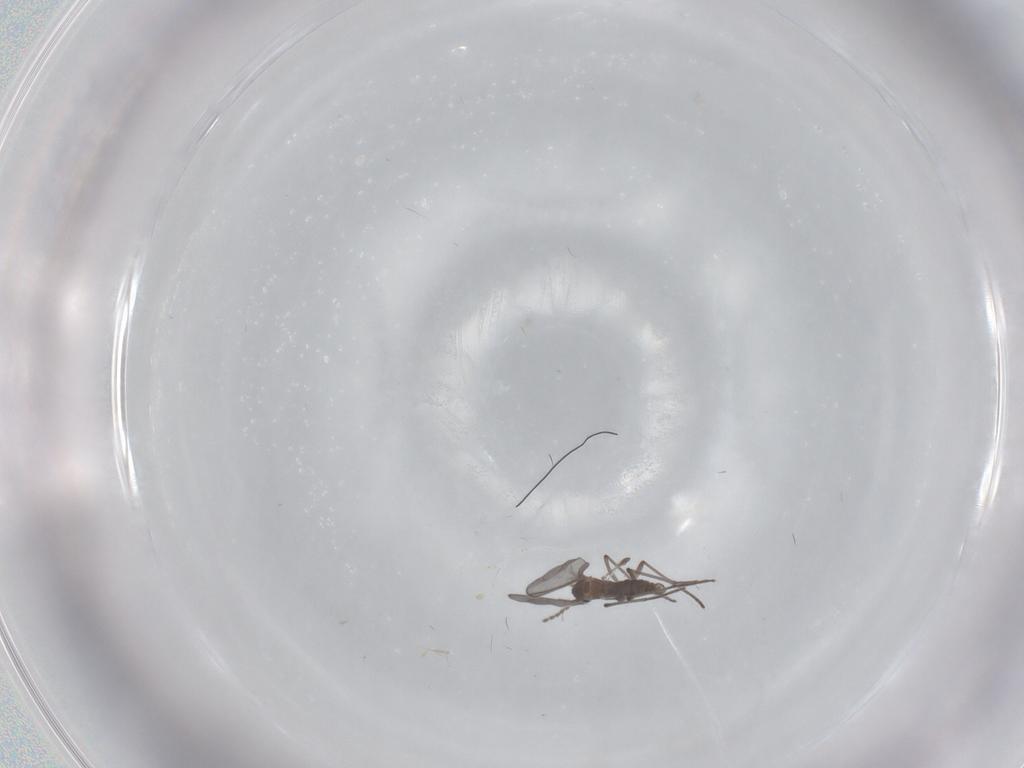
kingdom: Animalia
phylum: Arthropoda
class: Insecta
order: Diptera
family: Sciaridae
